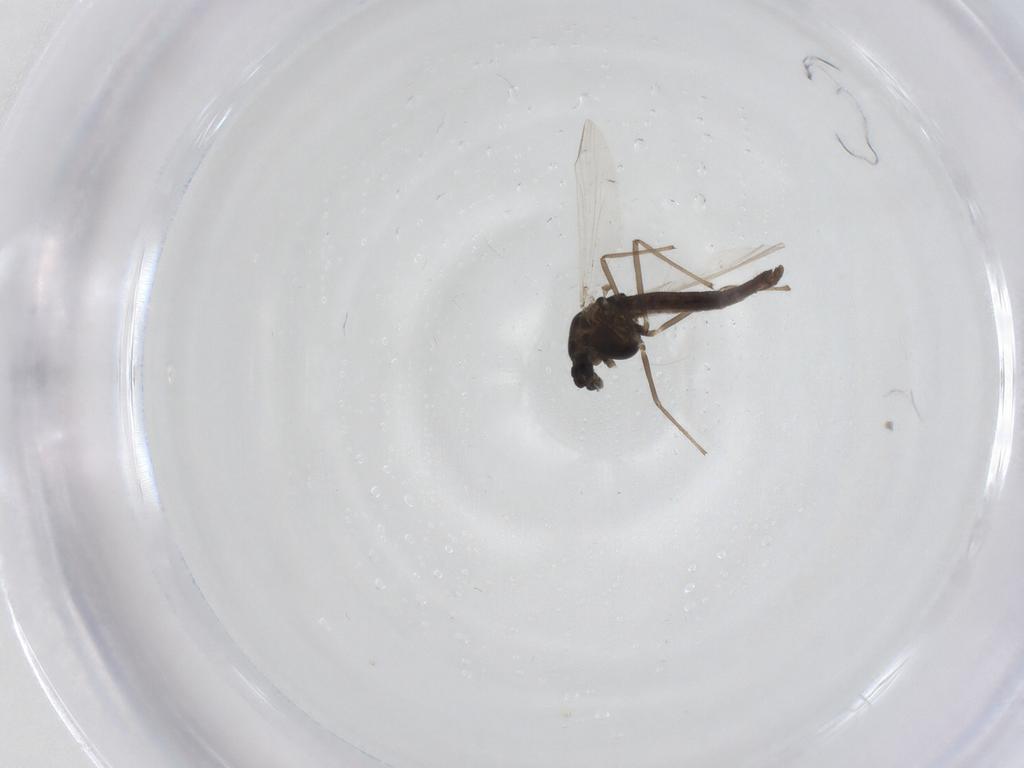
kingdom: Animalia
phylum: Arthropoda
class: Insecta
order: Diptera
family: Chironomidae
